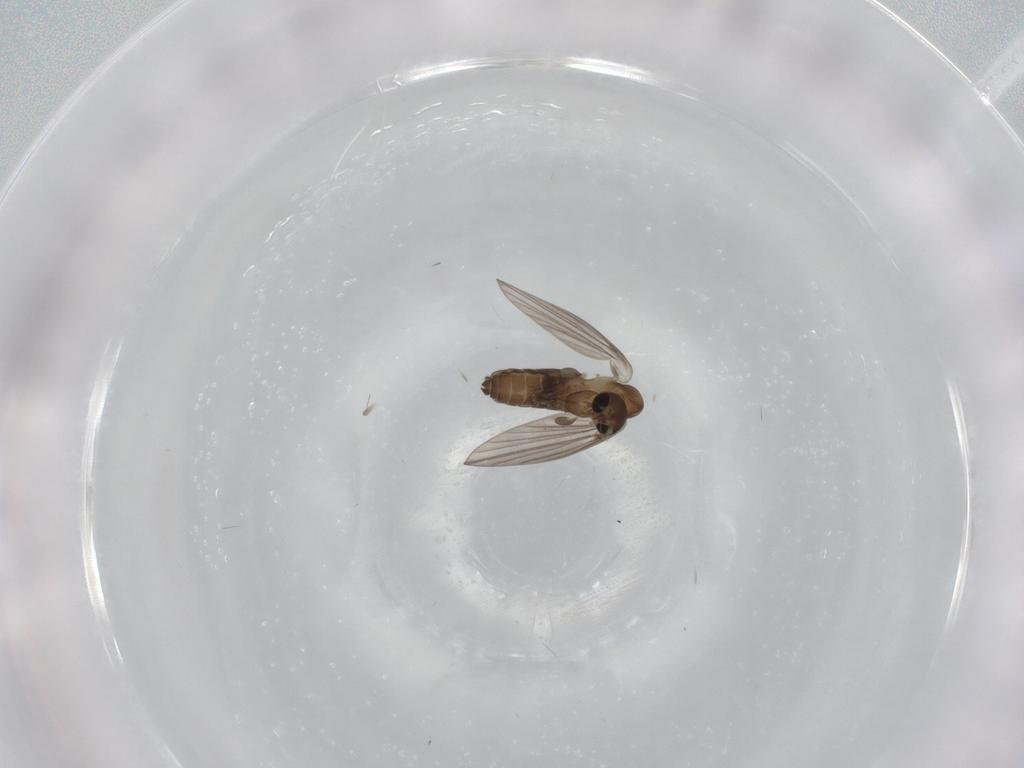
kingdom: Animalia
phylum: Arthropoda
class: Insecta
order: Diptera
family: Psychodidae
